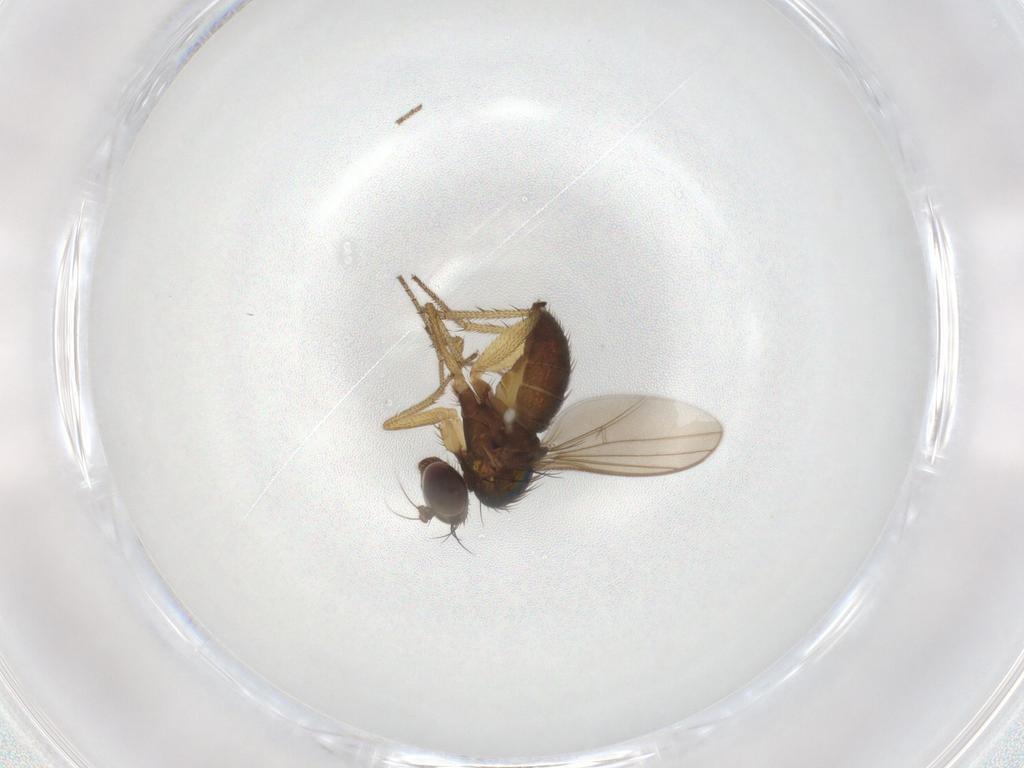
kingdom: Animalia
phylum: Arthropoda
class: Insecta
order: Diptera
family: Dolichopodidae
